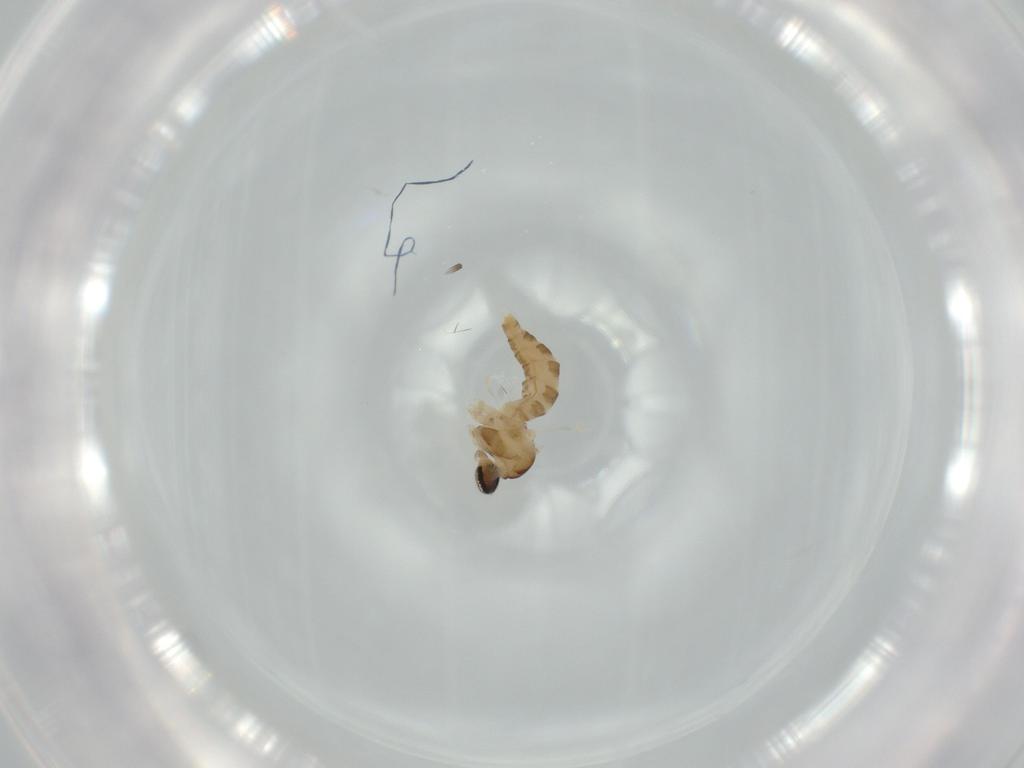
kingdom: Animalia
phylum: Arthropoda
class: Insecta
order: Diptera
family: Cecidomyiidae
